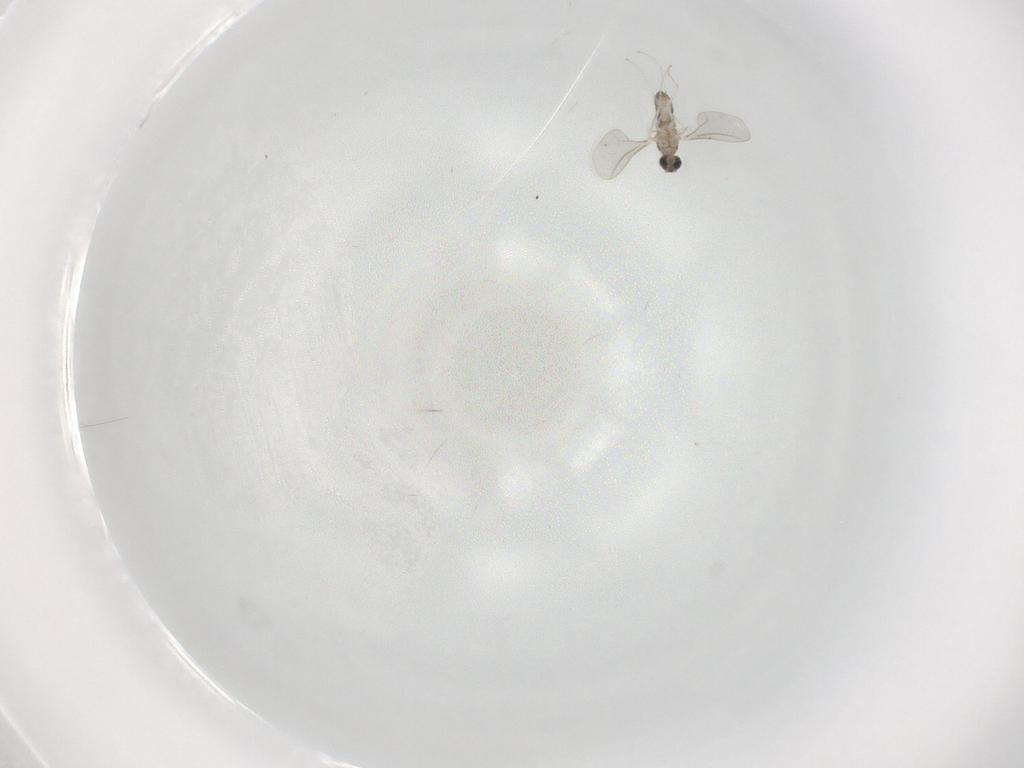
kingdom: Animalia
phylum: Arthropoda
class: Insecta
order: Diptera
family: Cecidomyiidae
